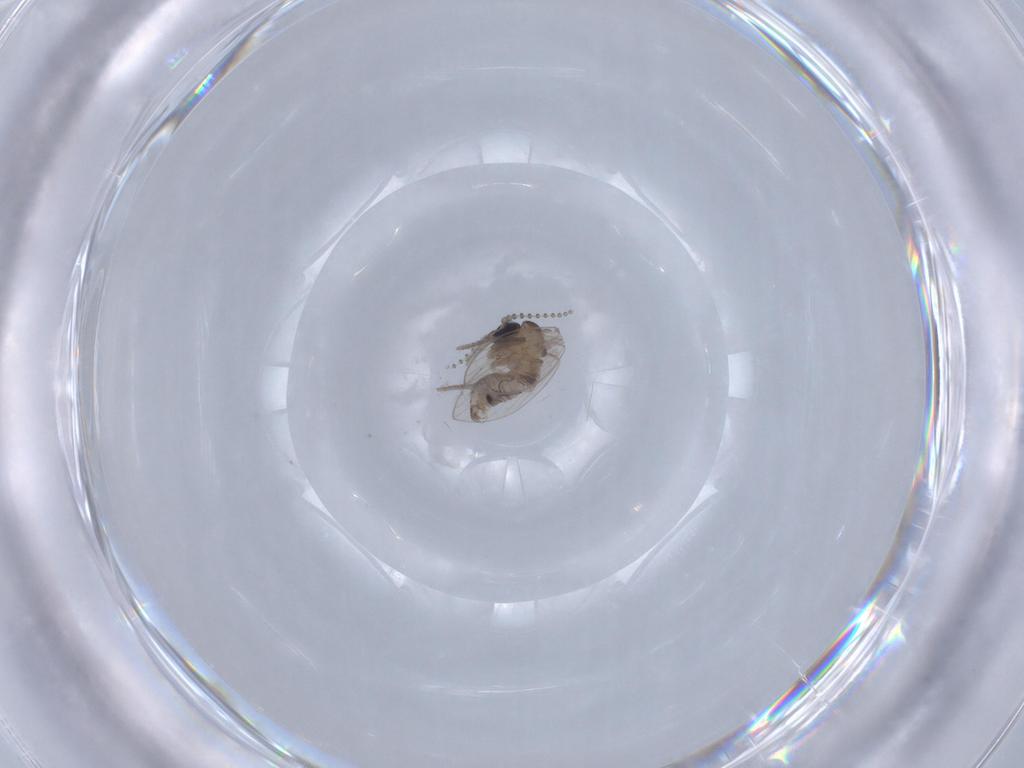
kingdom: Animalia
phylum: Arthropoda
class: Insecta
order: Diptera
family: Psychodidae
